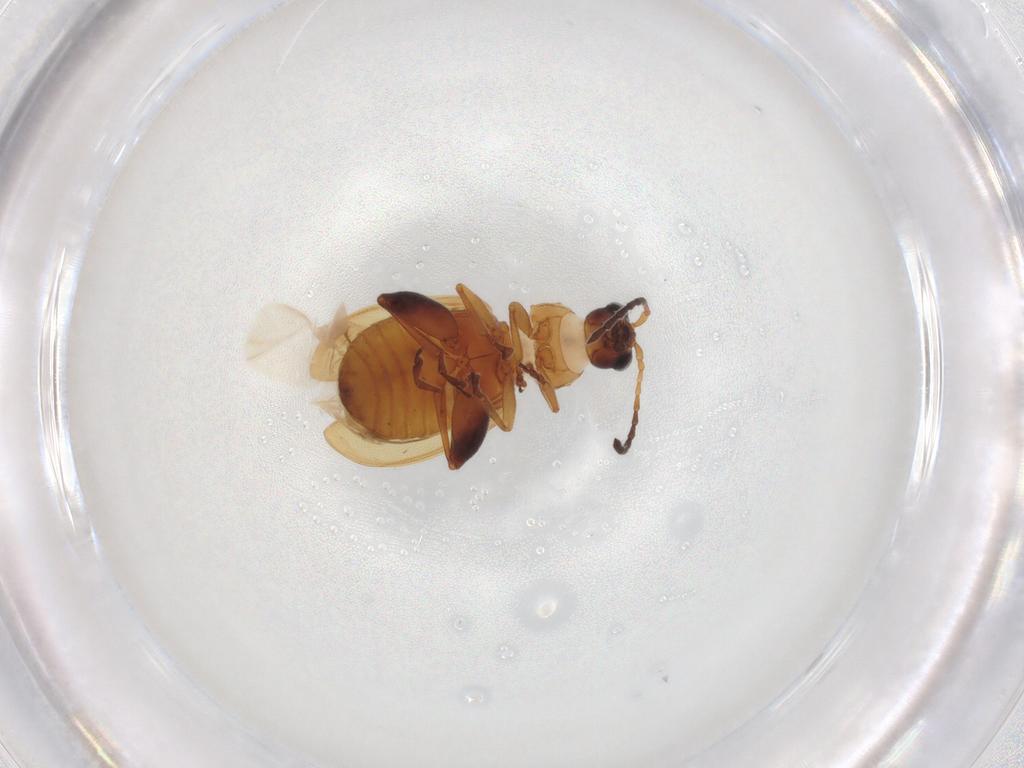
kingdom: Animalia
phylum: Arthropoda
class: Insecta
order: Coleoptera
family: Chrysomelidae
